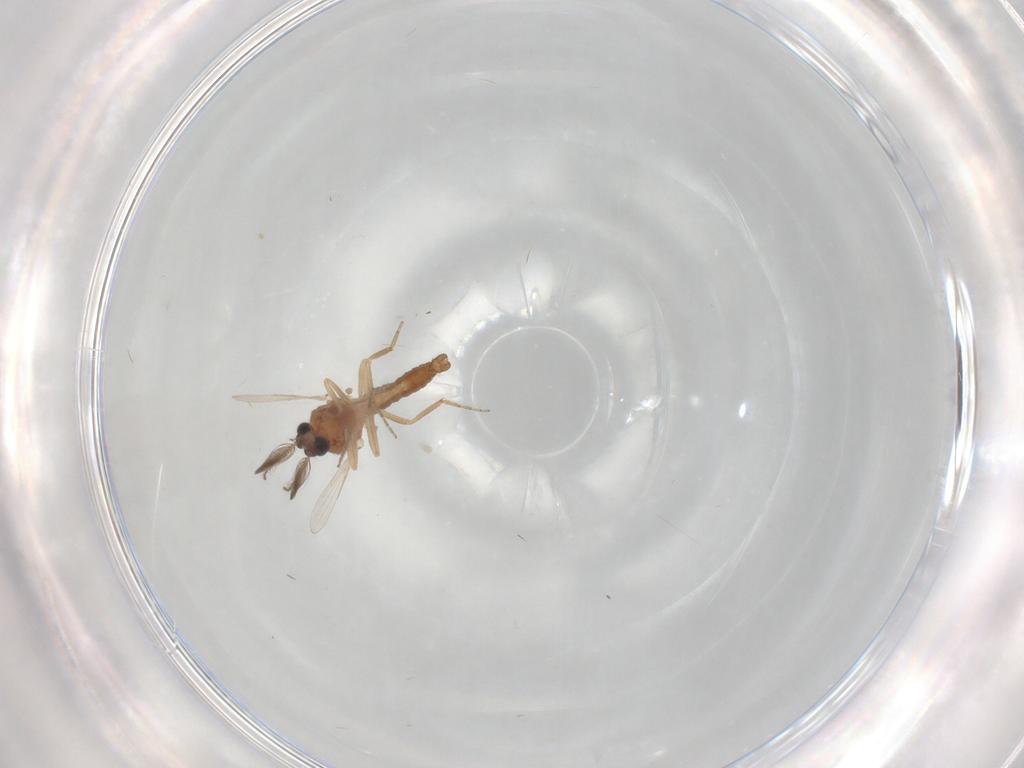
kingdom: Animalia
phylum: Arthropoda
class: Insecta
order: Diptera
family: Ceratopogonidae
